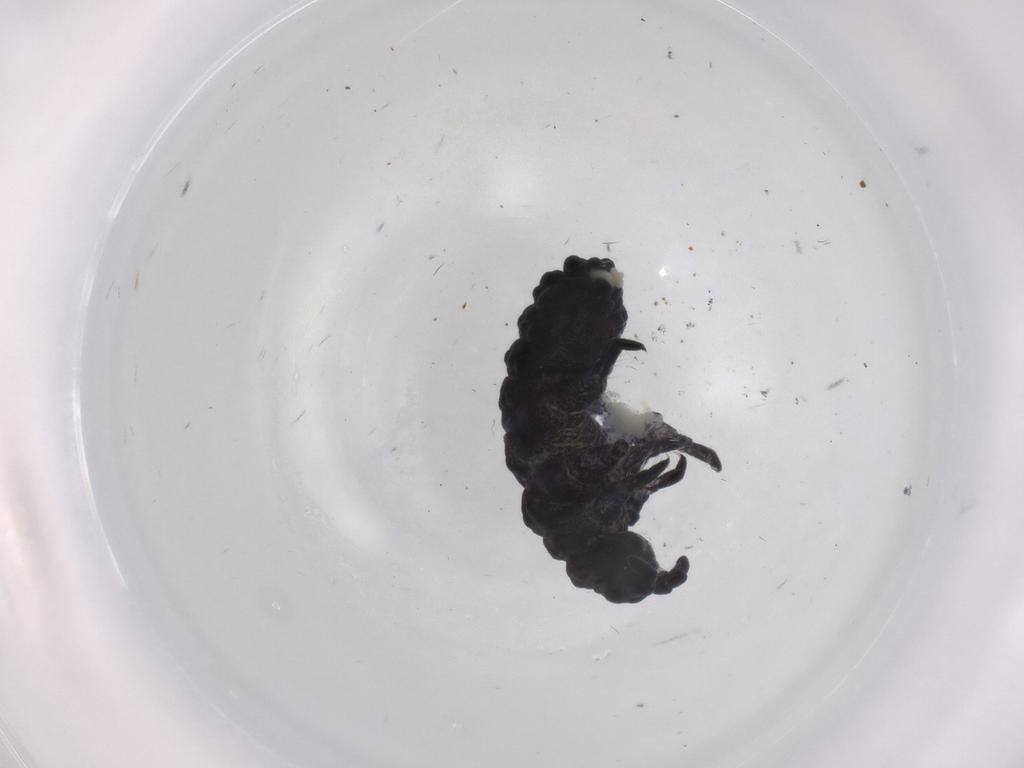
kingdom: Animalia
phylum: Arthropoda
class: Collembola
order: Poduromorpha
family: Neanuridae
